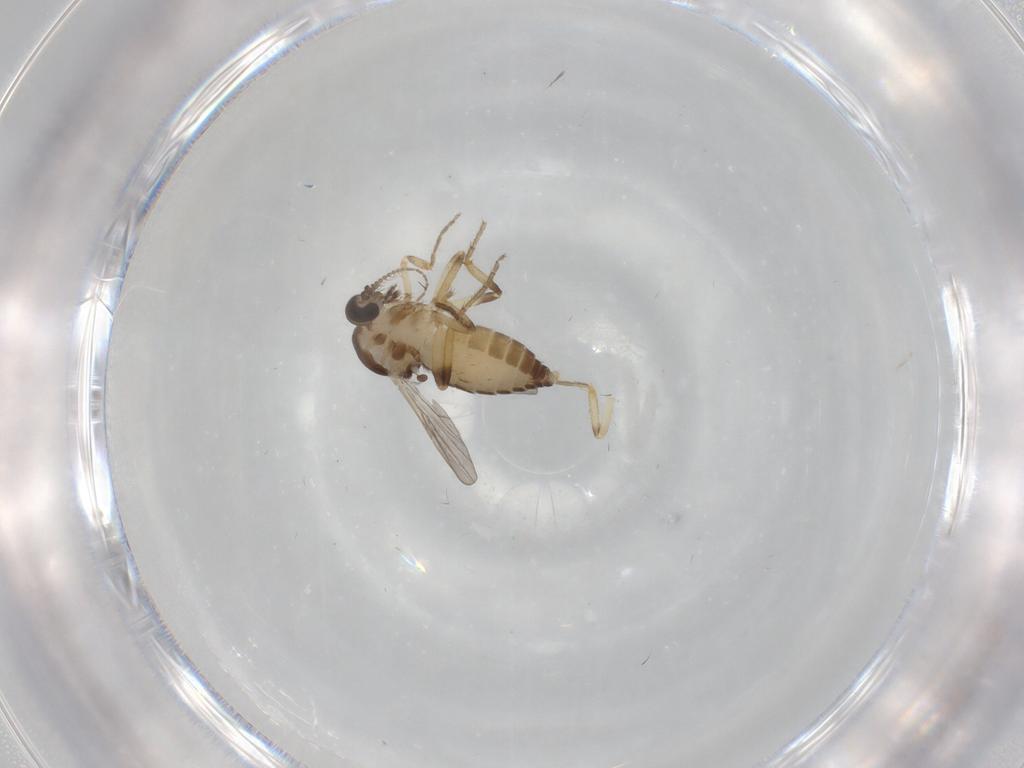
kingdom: Animalia
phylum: Arthropoda
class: Insecta
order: Diptera
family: Ceratopogonidae
